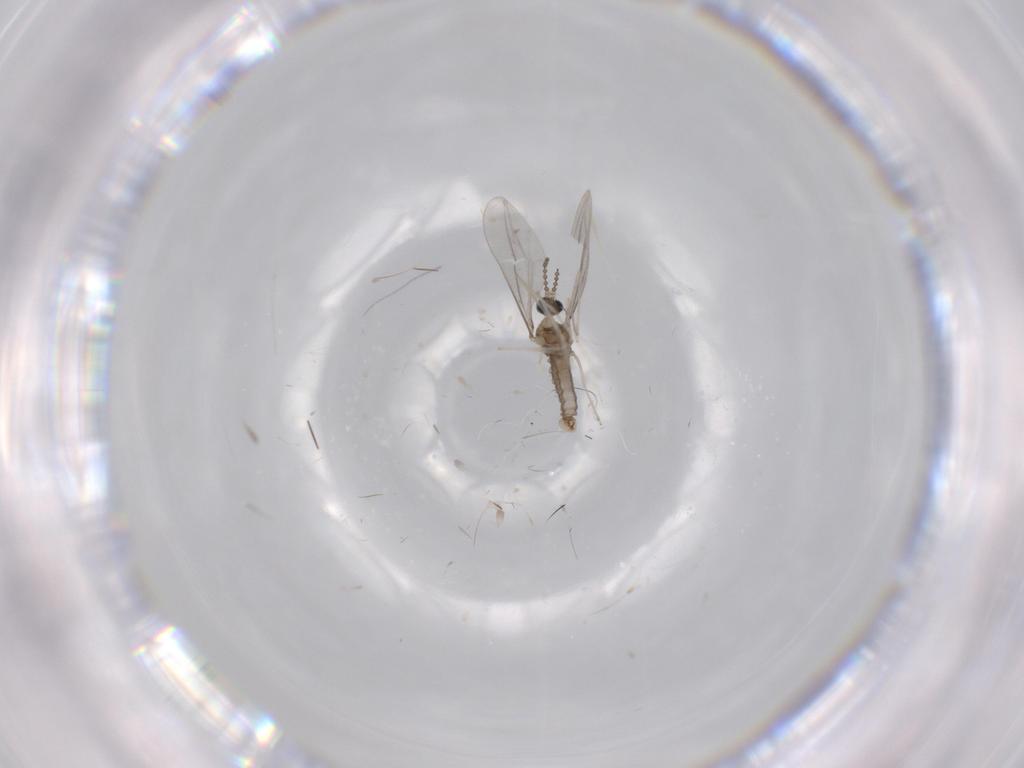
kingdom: Animalia
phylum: Arthropoda
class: Insecta
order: Diptera
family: Cecidomyiidae
